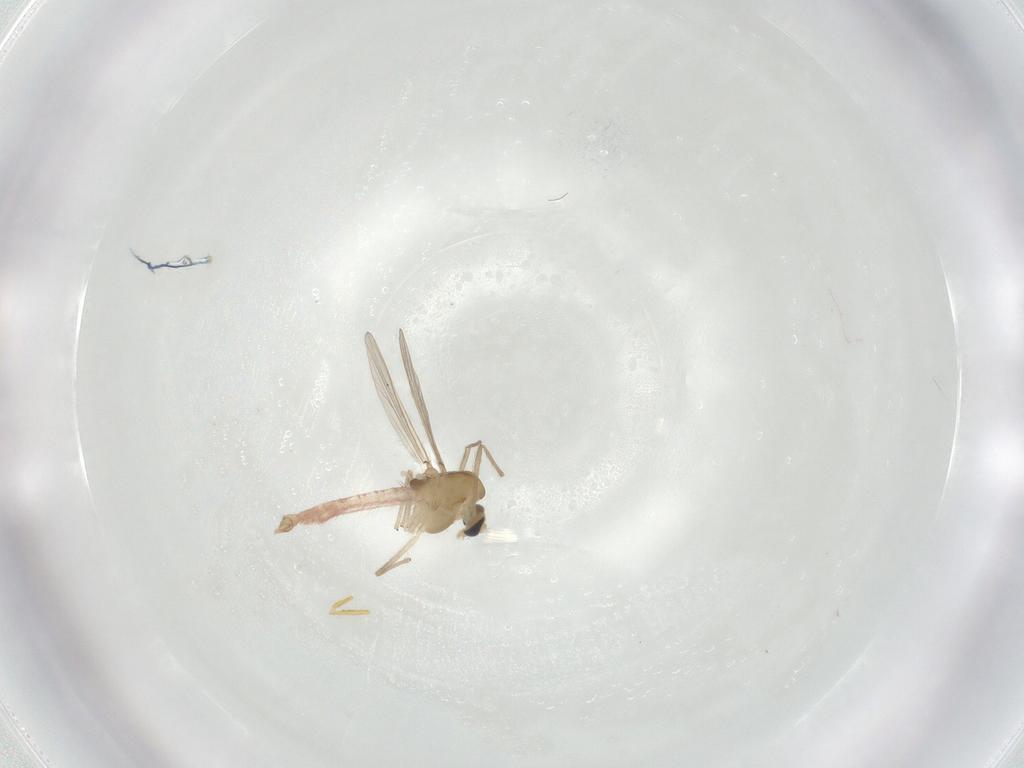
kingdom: Animalia
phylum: Arthropoda
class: Insecta
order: Diptera
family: Chironomidae
